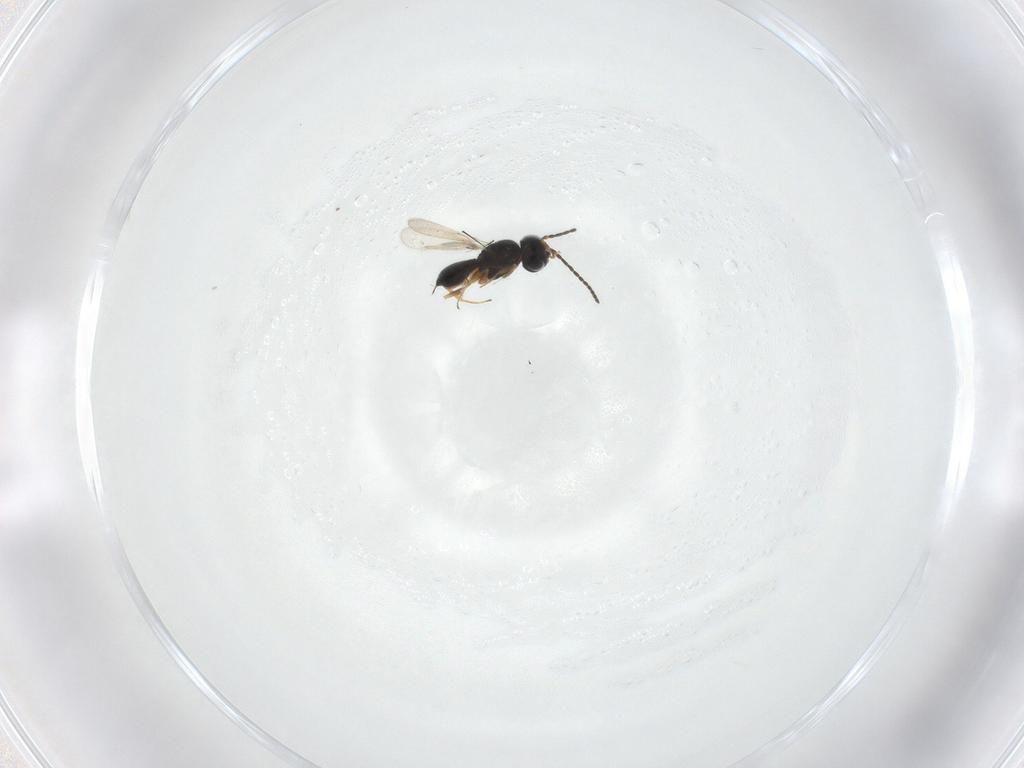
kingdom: Animalia
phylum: Arthropoda
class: Insecta
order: Hymenoptera
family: Scelionidae
